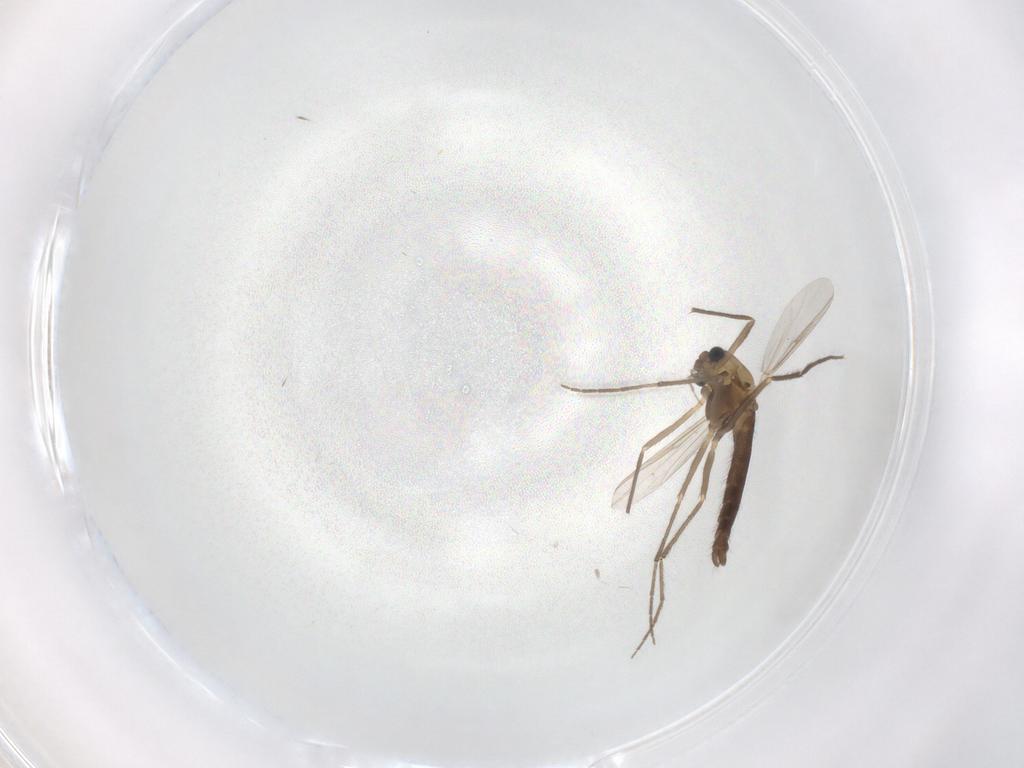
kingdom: Animalia
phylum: Arthropoda
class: Insecta
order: Diptera
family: Chironomidae
